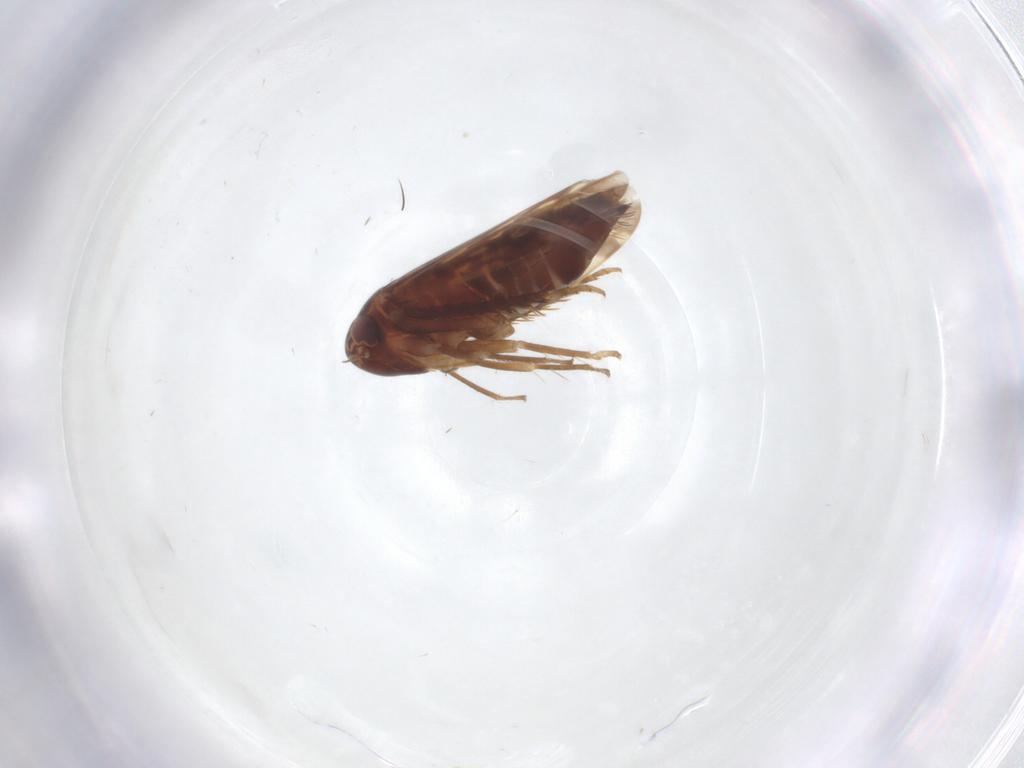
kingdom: Animalia
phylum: Arthropoda
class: Insecta
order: Hemiptera
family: Cicadellidae
